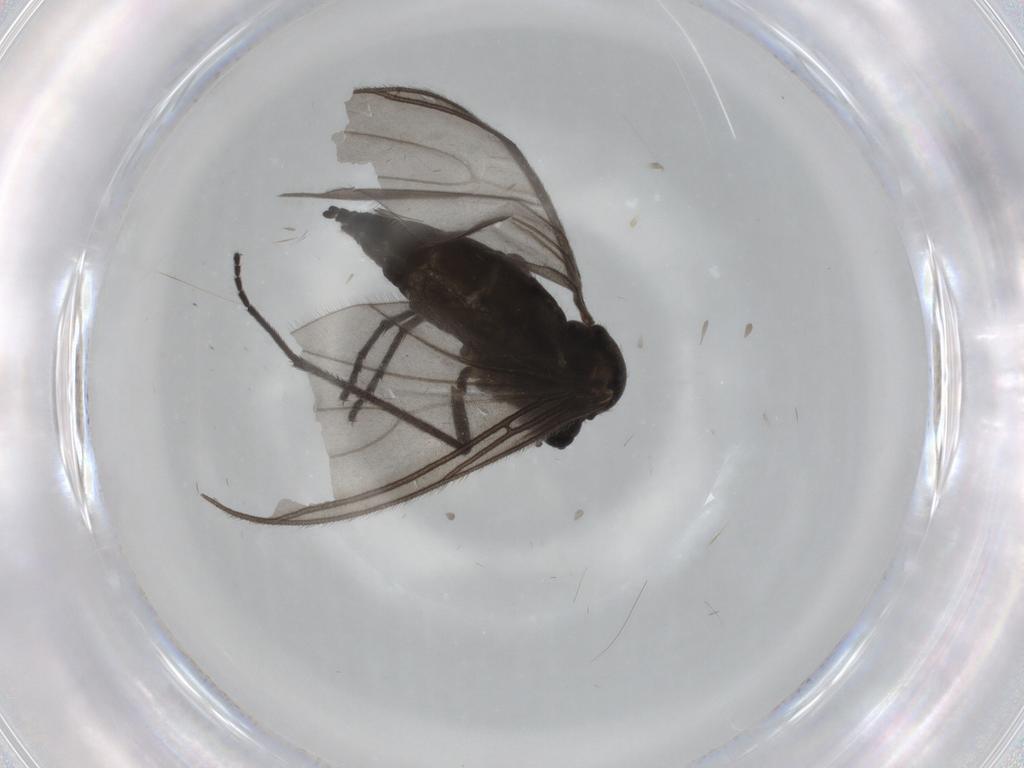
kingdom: Animalia
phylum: Arthropoda
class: Insecta
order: Diptera
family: Sciaridae
